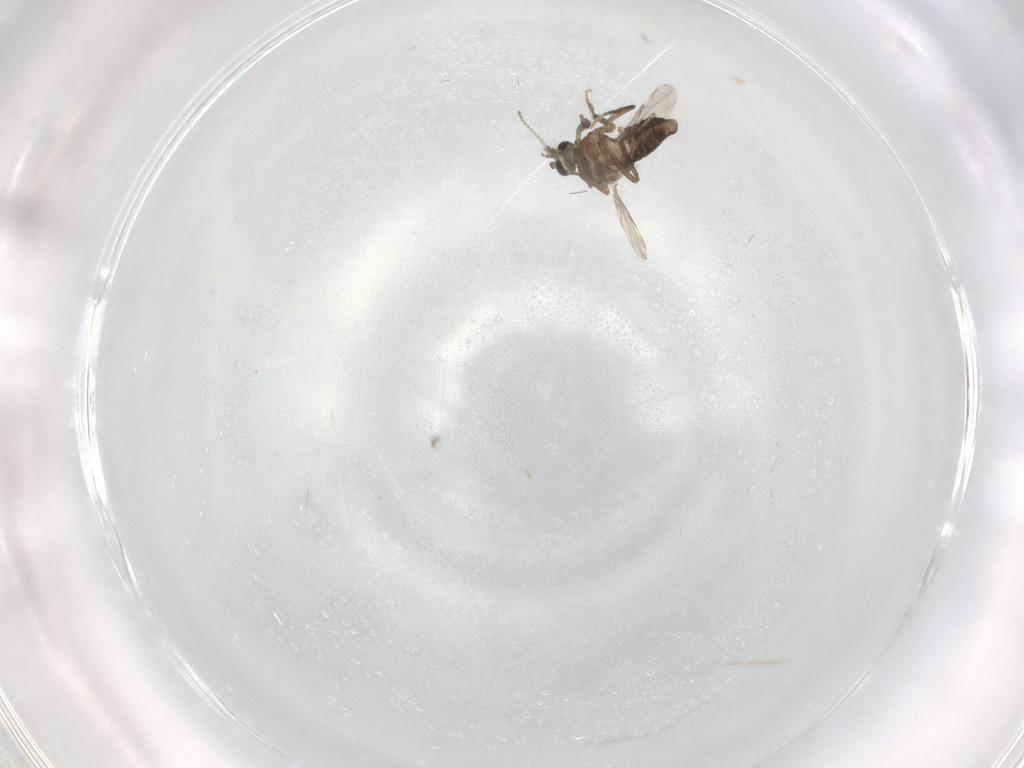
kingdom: Animalia
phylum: Arthropoda
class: Insecta
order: Diptera
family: Ceratopogonidae
